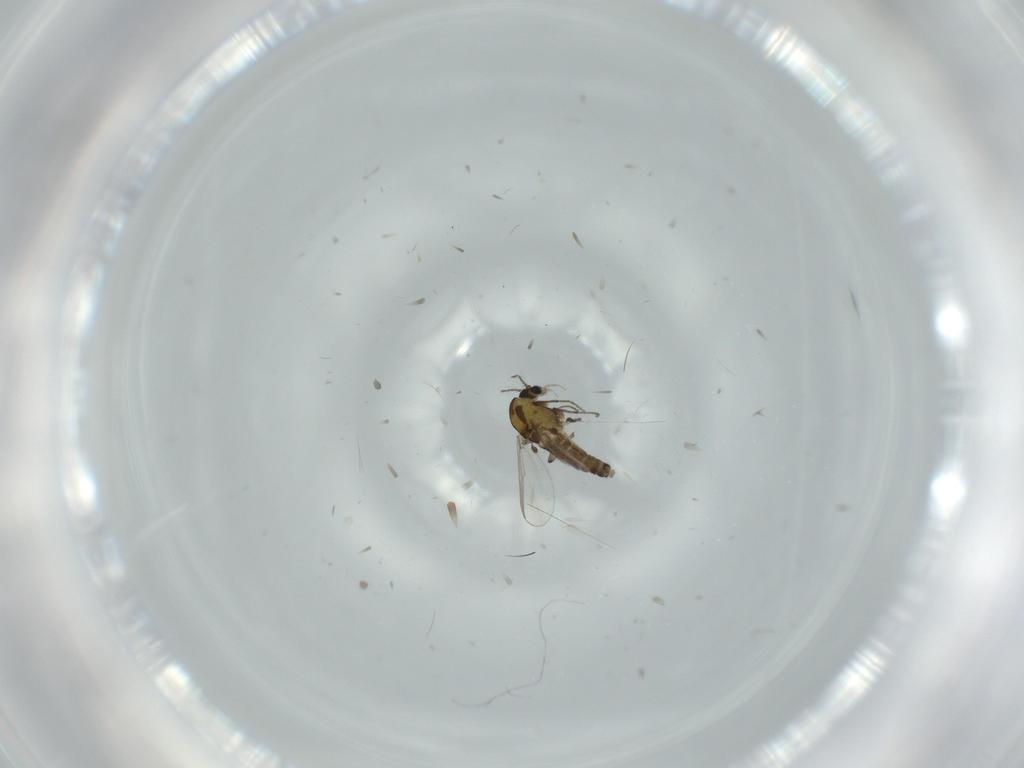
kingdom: Animalia
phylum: Arthropoda
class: Insecta
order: Diptera
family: Chironomidae
